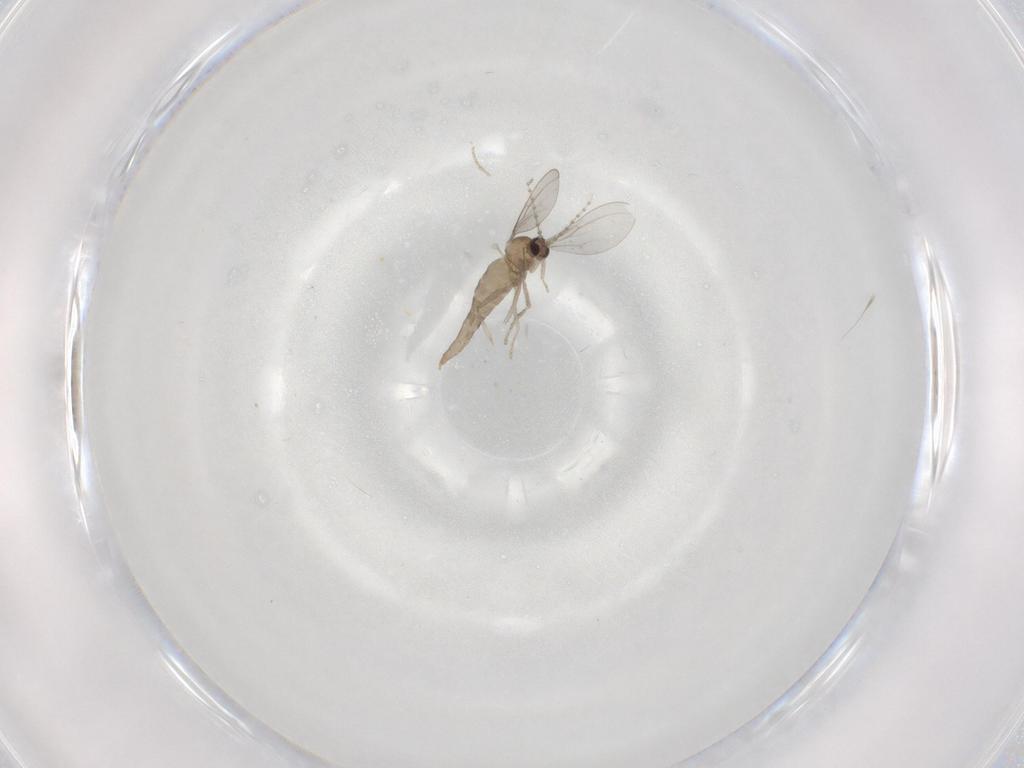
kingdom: Animalia
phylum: Arthropoda
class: Insecta
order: Diptera
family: Cecidomyiidae
